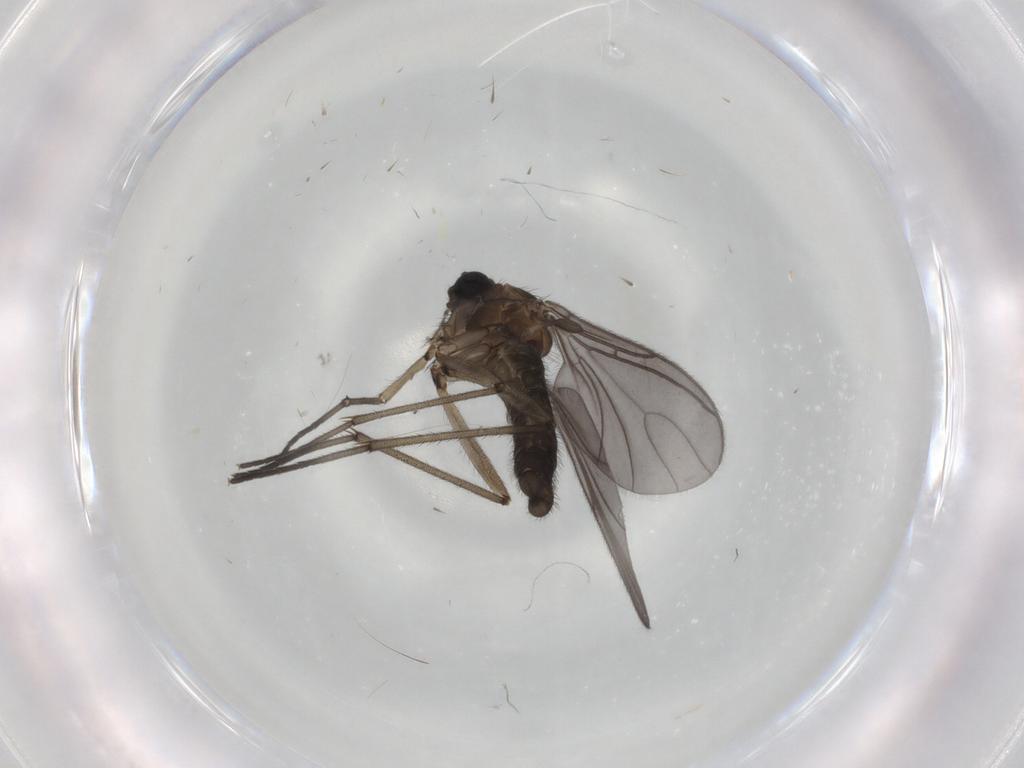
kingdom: Animalia
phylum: Arthropoda
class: Insecta
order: Diptera
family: Sciaridae
